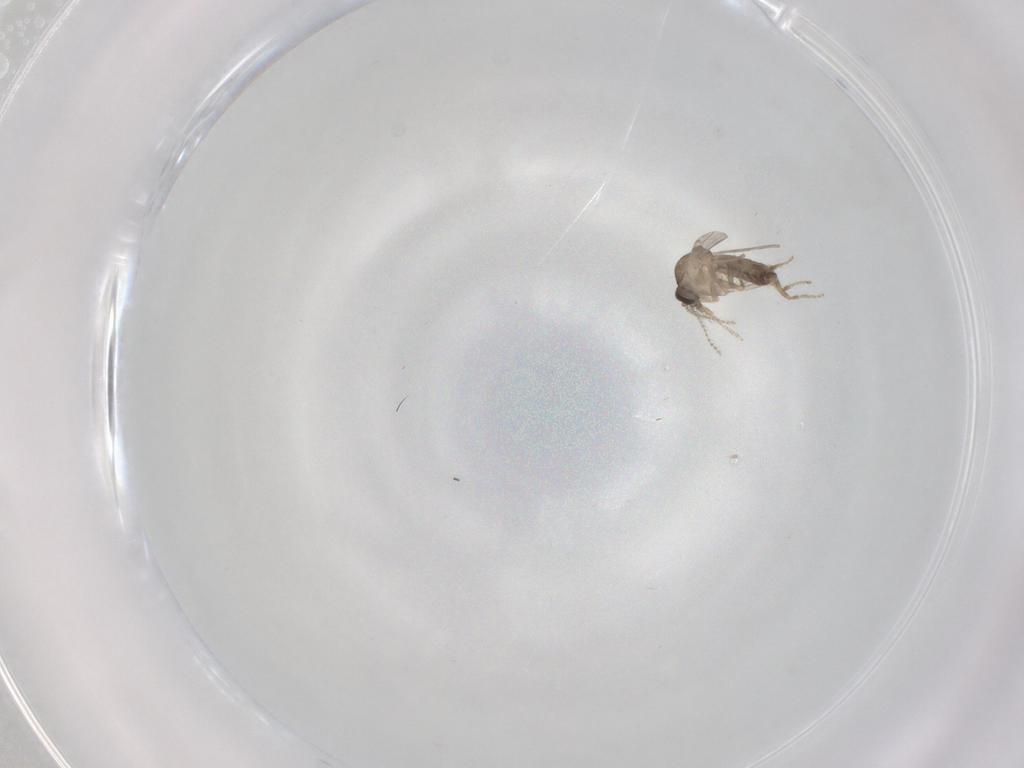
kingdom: Animalia
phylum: Arthropoda
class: Insecta
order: Diptera
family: Ceratopogonidae
